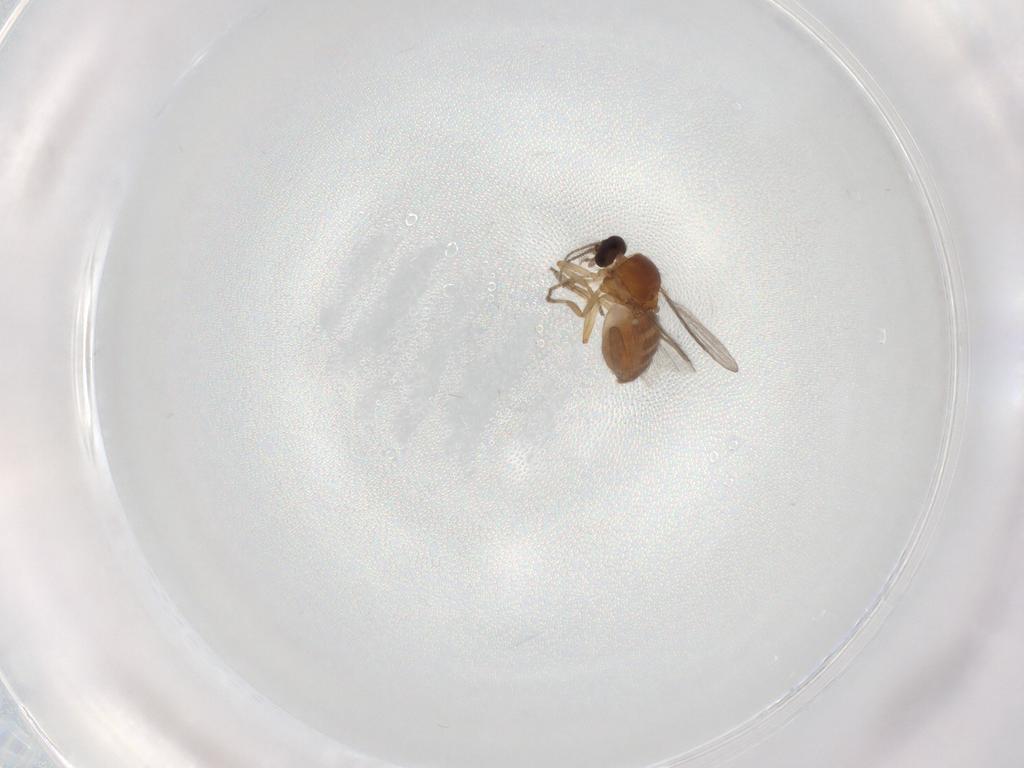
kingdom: Animalia
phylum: Arthropoda
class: Insecta
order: Diptera
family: Ceratopogonidae
